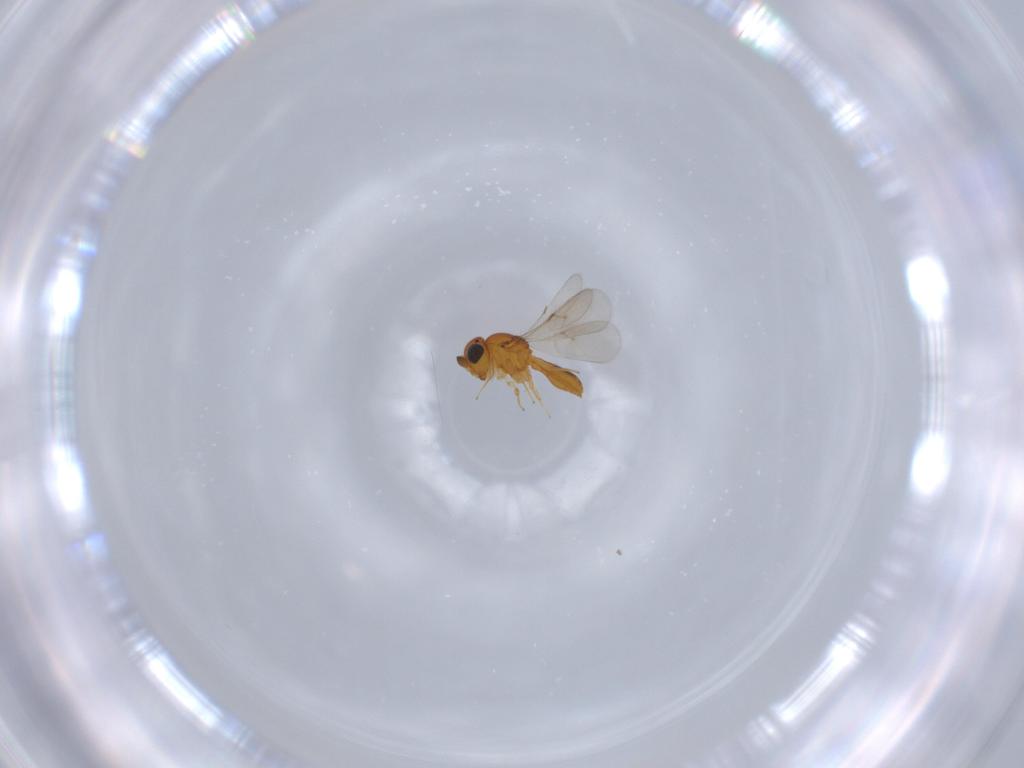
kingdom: Animalia
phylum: Arthropoda
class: Insecta
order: Hymenoptera
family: Scelionidae
